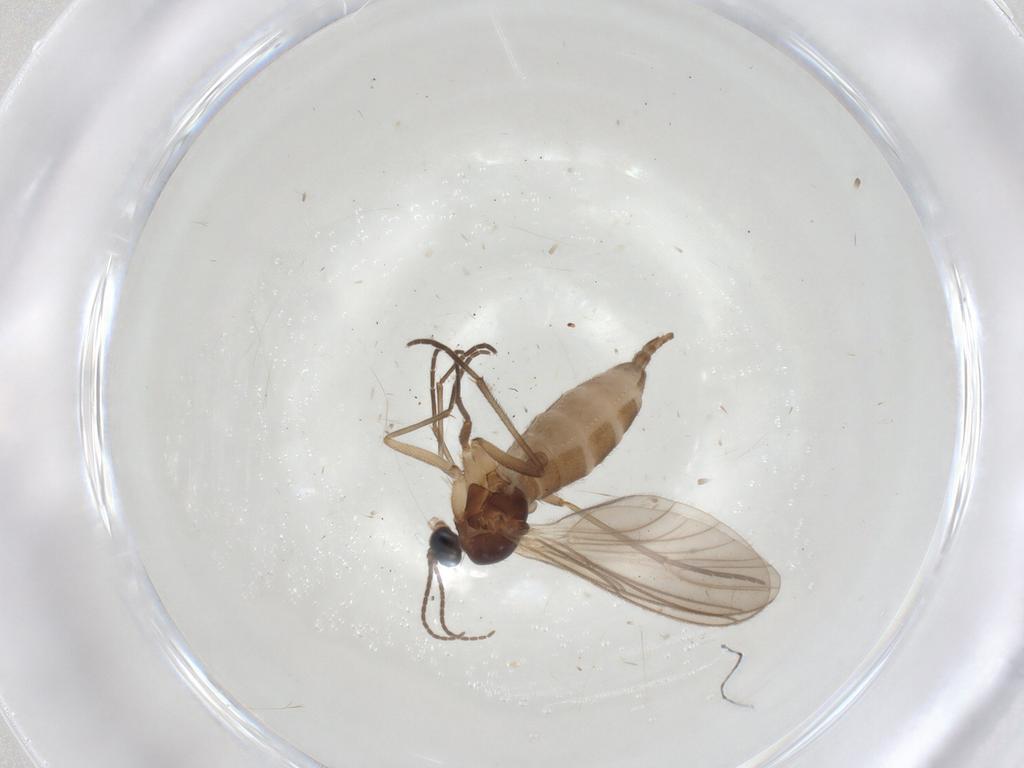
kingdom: Animalia
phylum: Arthropoda
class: Insecta
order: Diptera
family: Sciaridae
